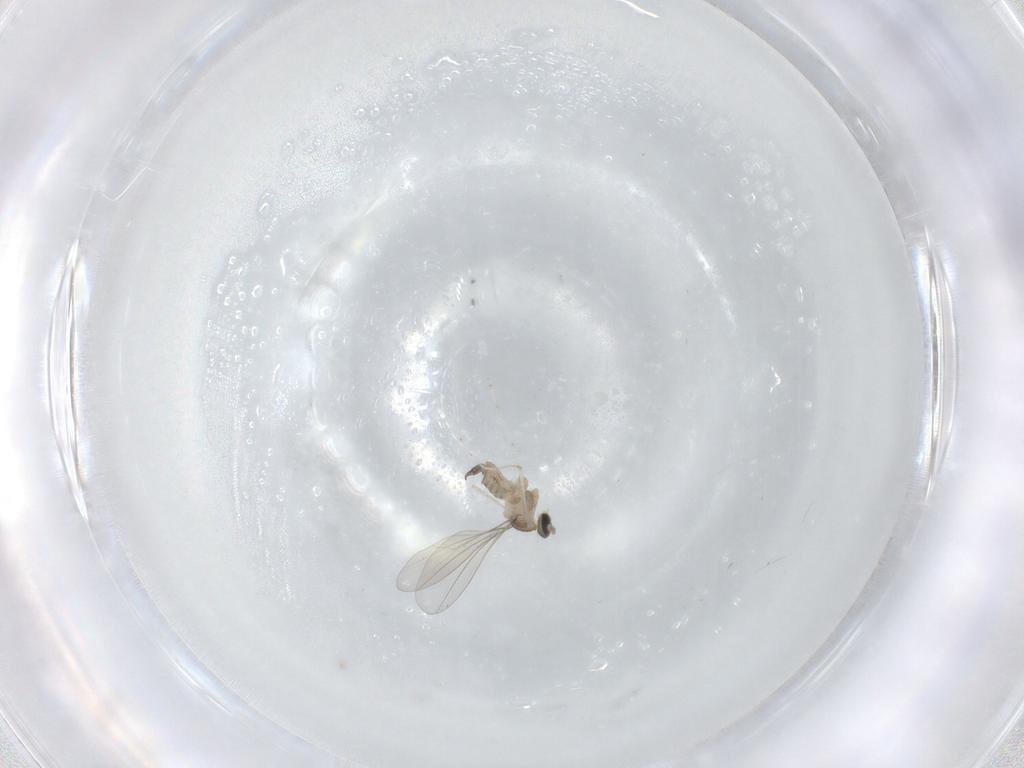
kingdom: Animalia
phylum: Arthropoda
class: Insecta
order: Diptera
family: Cecidomyiidae
